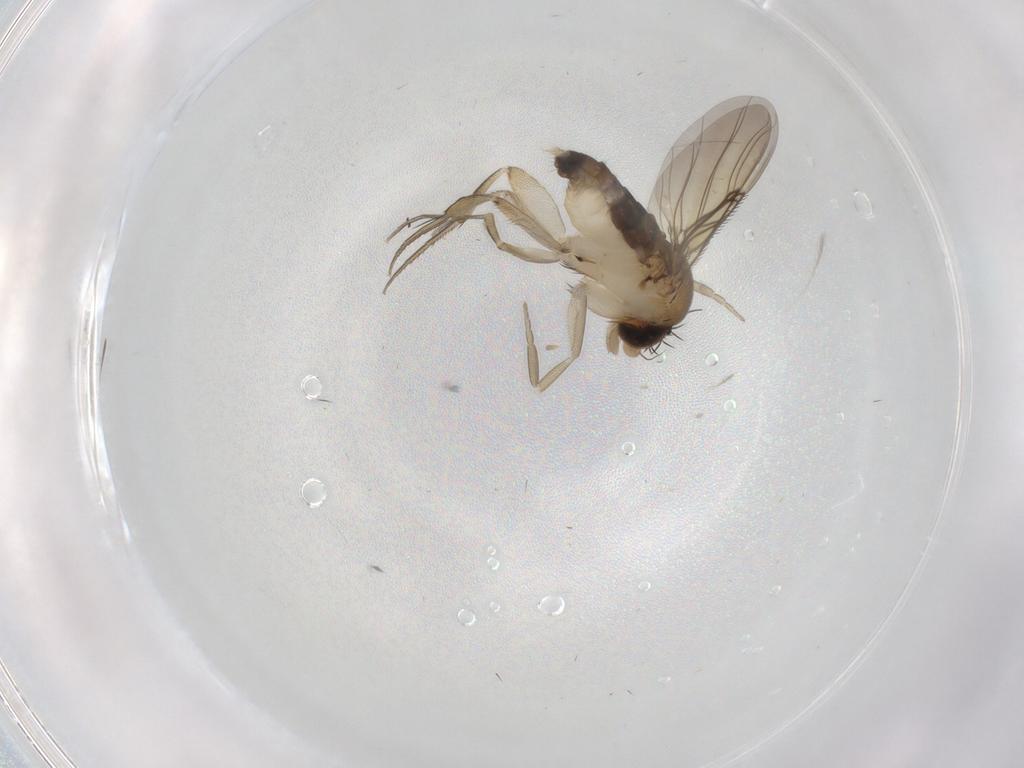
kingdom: Animalia
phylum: Arthropoda
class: Insecta
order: Diptera
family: Phoridae
